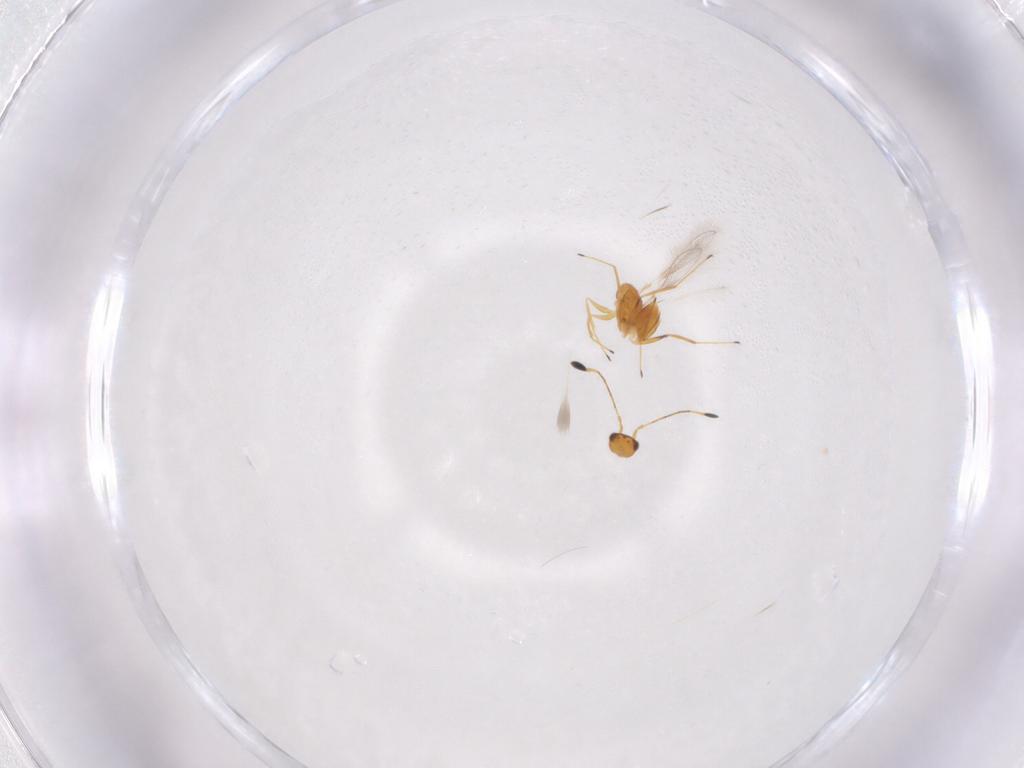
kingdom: Animalia
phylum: Arthropoda
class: Insecta
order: Hymenoptera
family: Mymaridae
